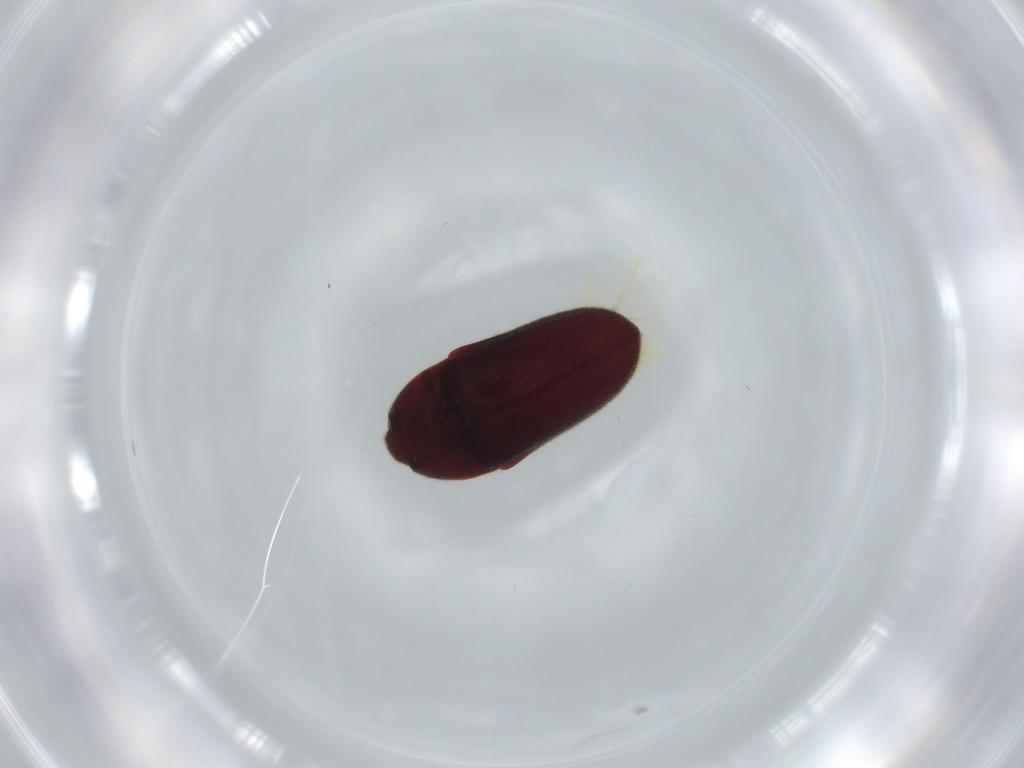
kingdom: Animalia
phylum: Arthropoda
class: Insecta
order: Coleoptera
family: Throscidae
